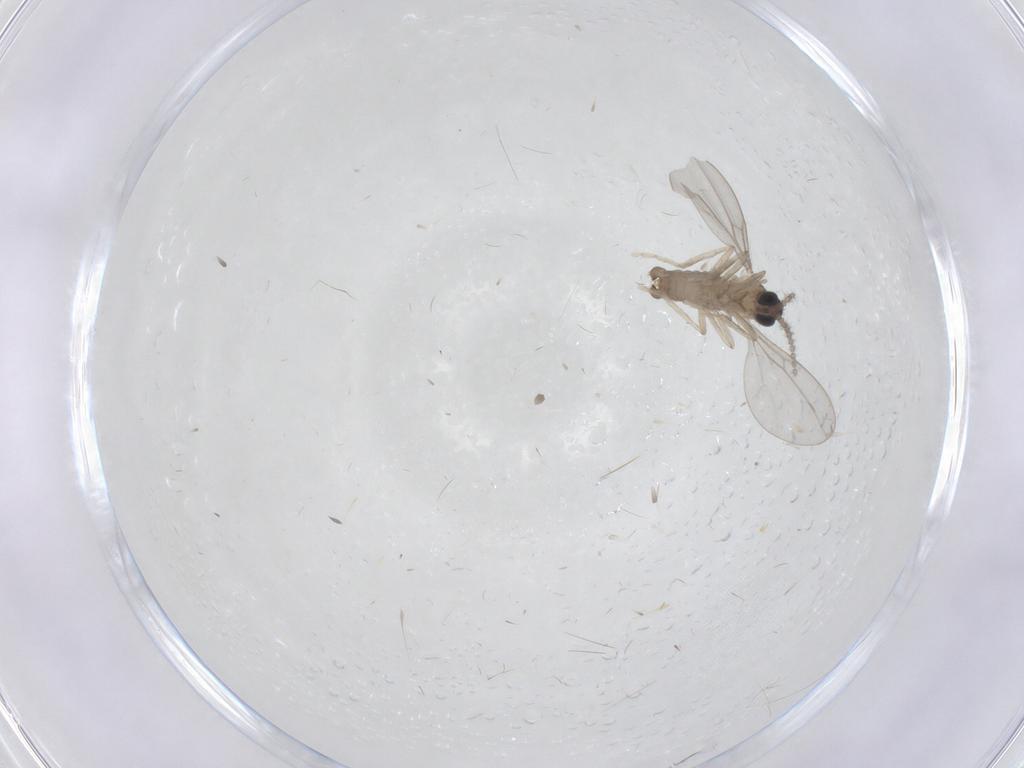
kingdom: Animalia
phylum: Arthropoda
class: Insecta
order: Diptera
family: Cecidomyiidae
